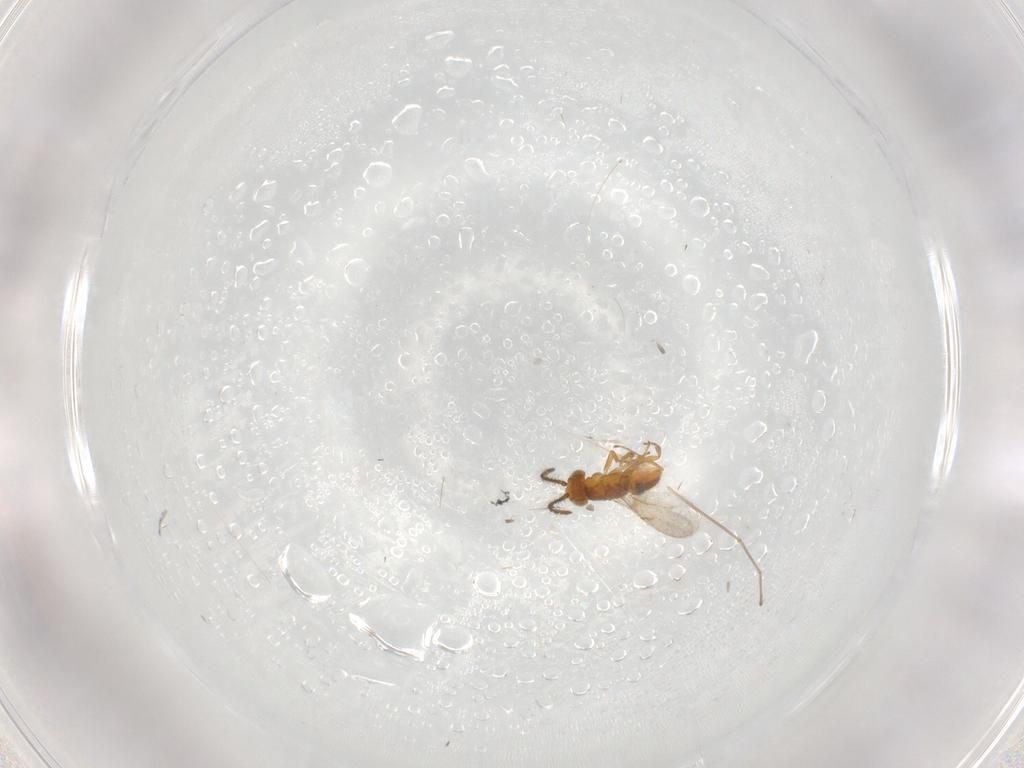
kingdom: Animalia
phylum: Arthropoda
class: Insecta
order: Hymenoptera
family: Encyrtidae
